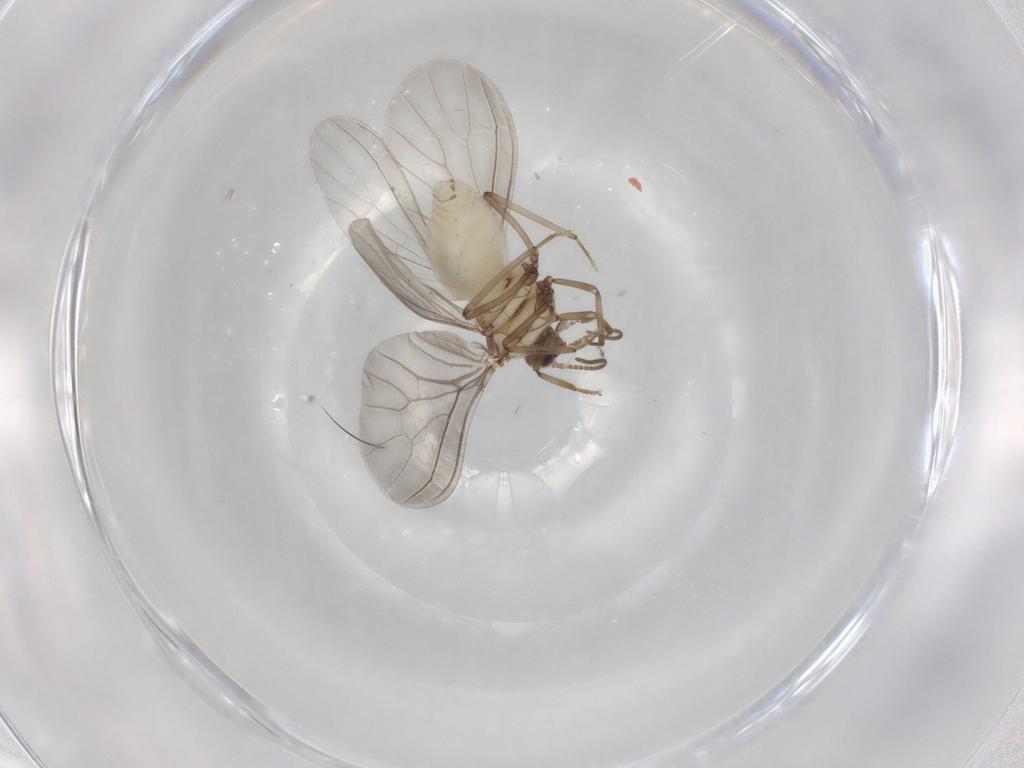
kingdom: Animalia
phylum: Arthropoda
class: Insecta
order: Neuroptera
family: Coniopterygidae
